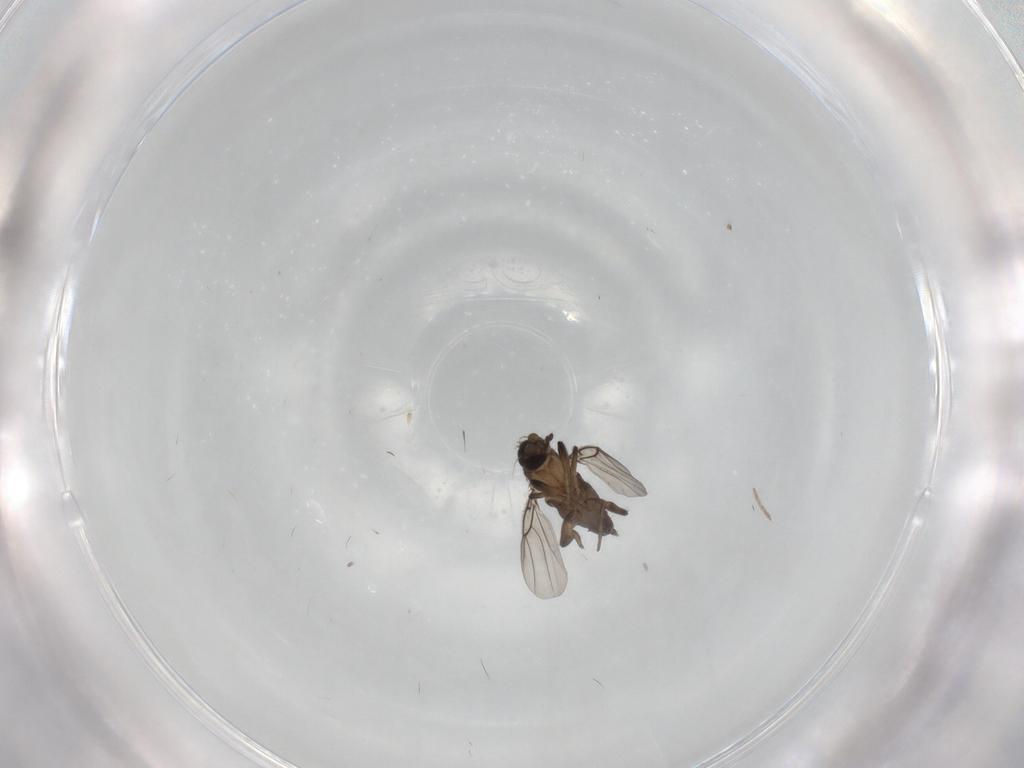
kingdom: Animalia
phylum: Arthropoda
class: Insecta
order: Diptera
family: Phoridae
